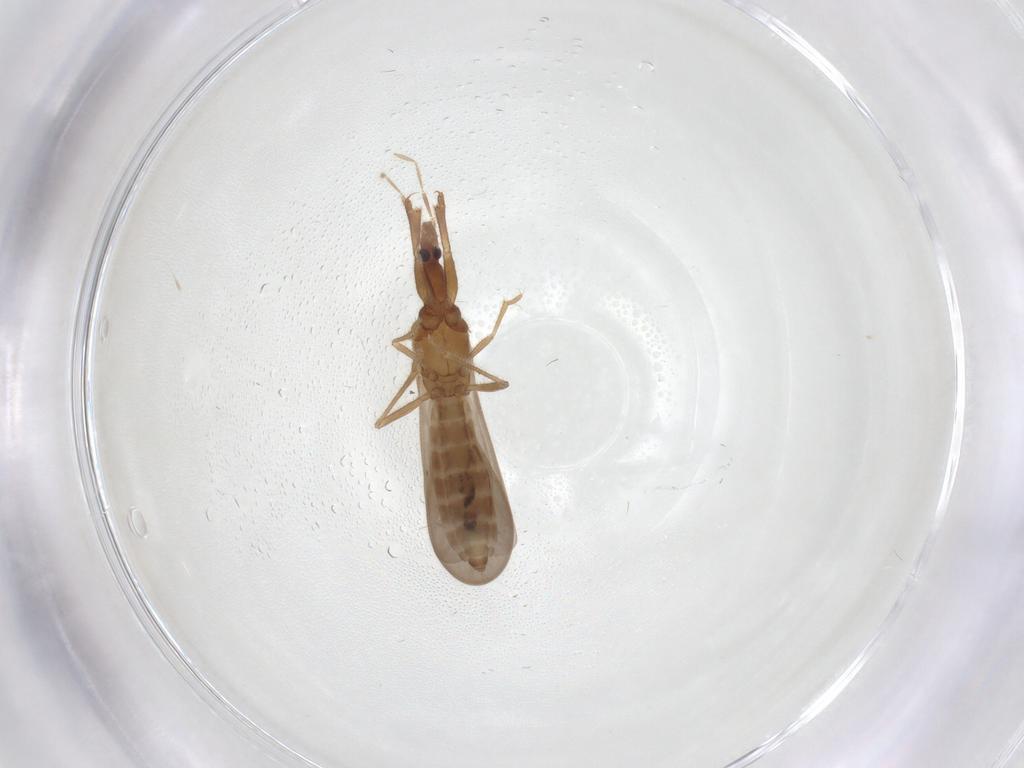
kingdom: Animalia
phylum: Arthropoda
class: Insecta
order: Hemiptera
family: Enicocephalidae
